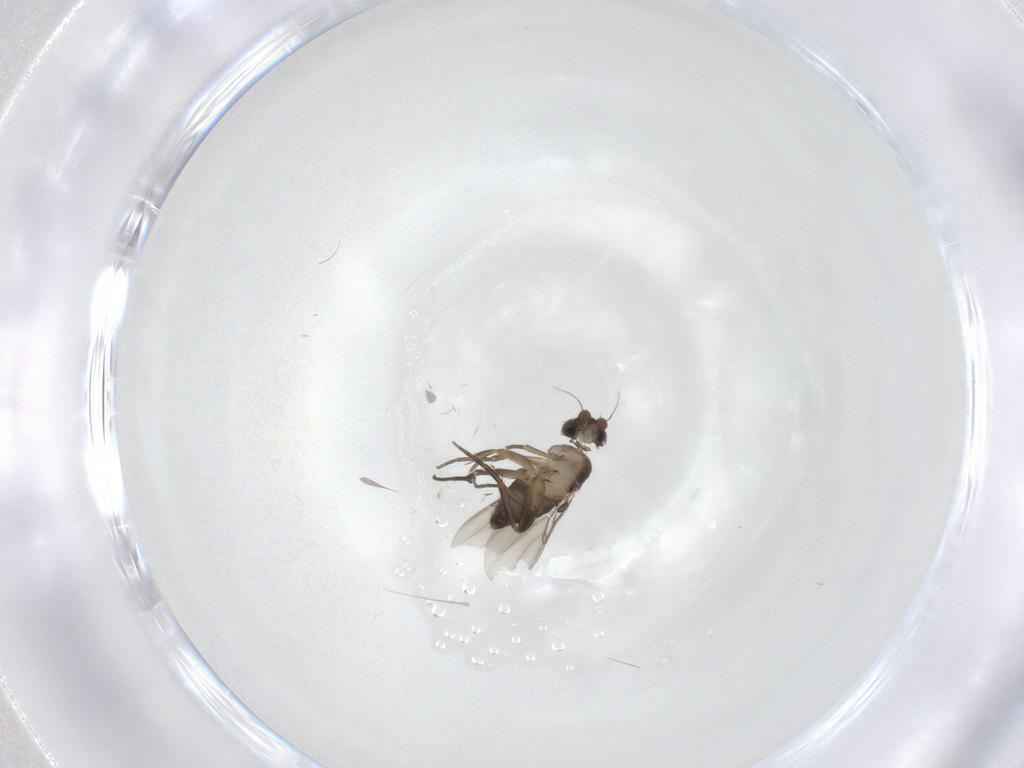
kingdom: Animalia
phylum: Arthropoda
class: Insecta
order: Diptera
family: Phoridae
